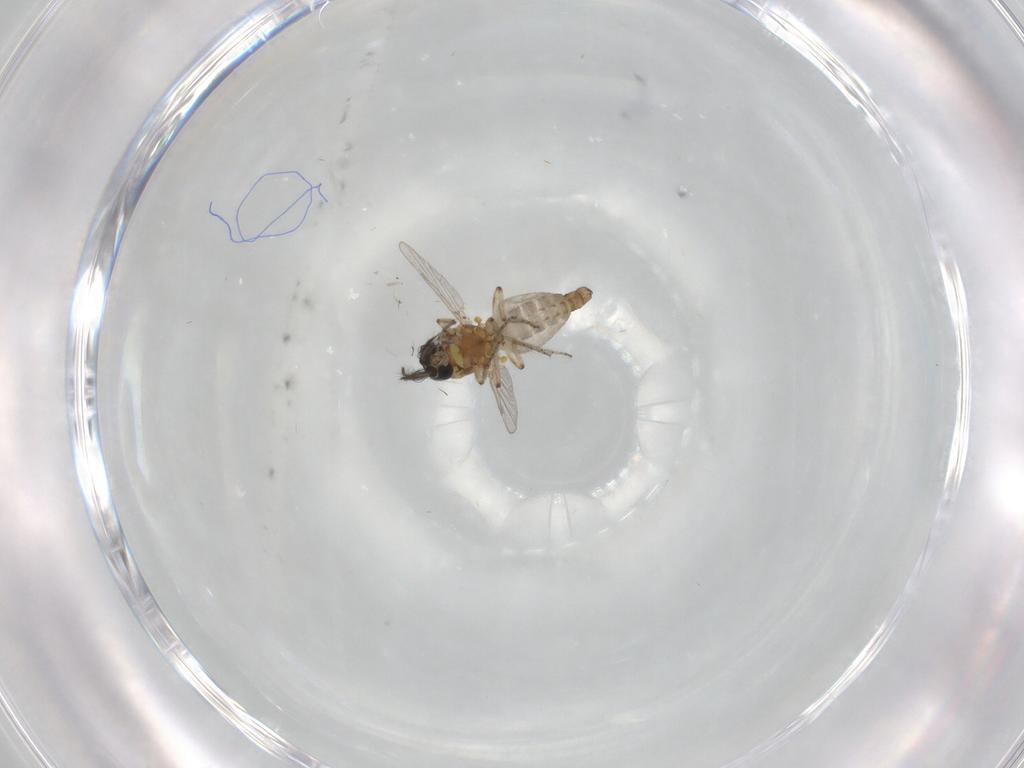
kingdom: Animalia
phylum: Arthropoda
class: Insecta
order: Diptera
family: Ceratopogonidae
